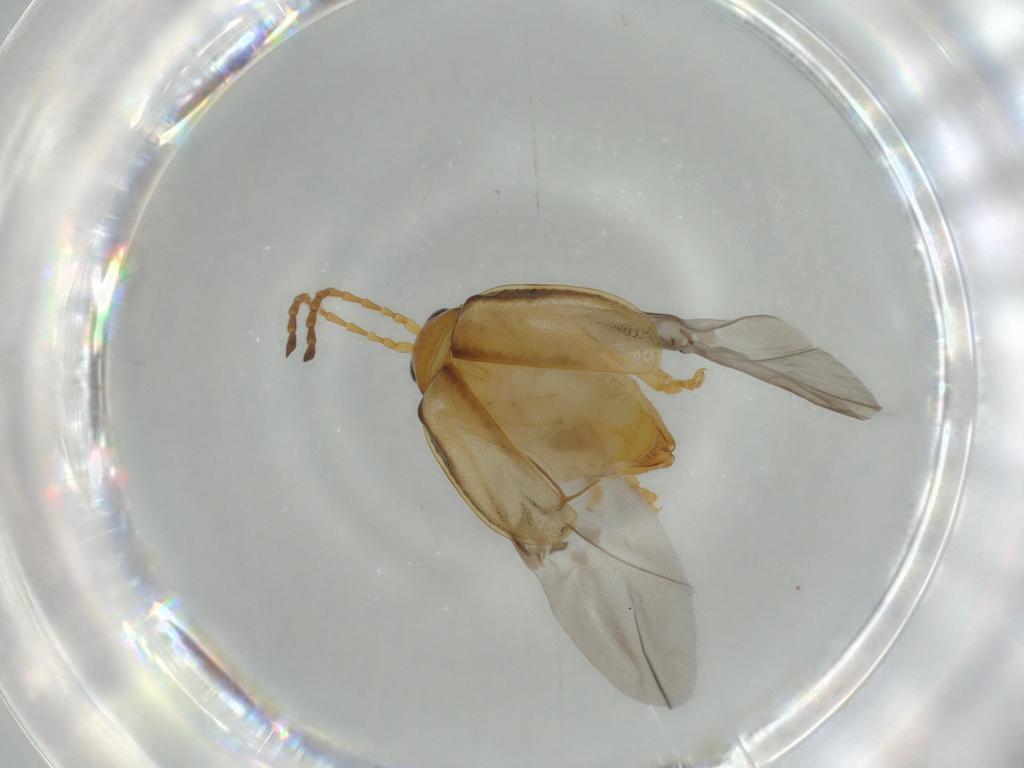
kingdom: Animalia
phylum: Arthropoda
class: Insecta
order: Coleoptera
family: Chrysomelidae
